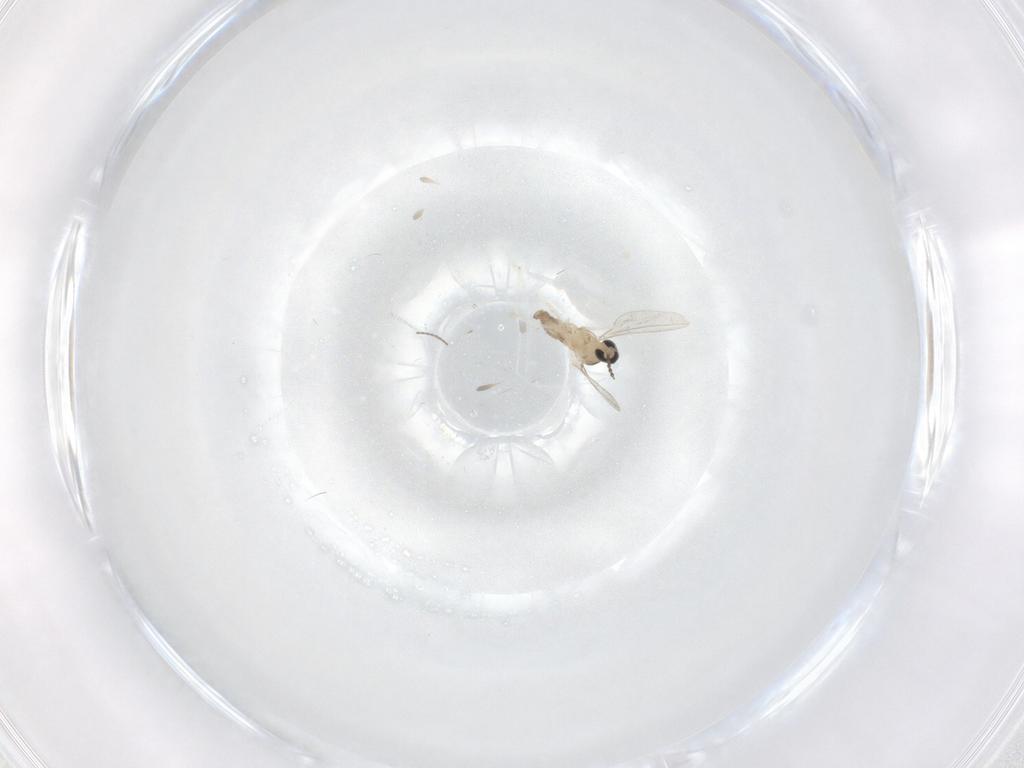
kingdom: Animalia
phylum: Arthropoda
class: Insecta
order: Diptera
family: Cecidomyiidae
